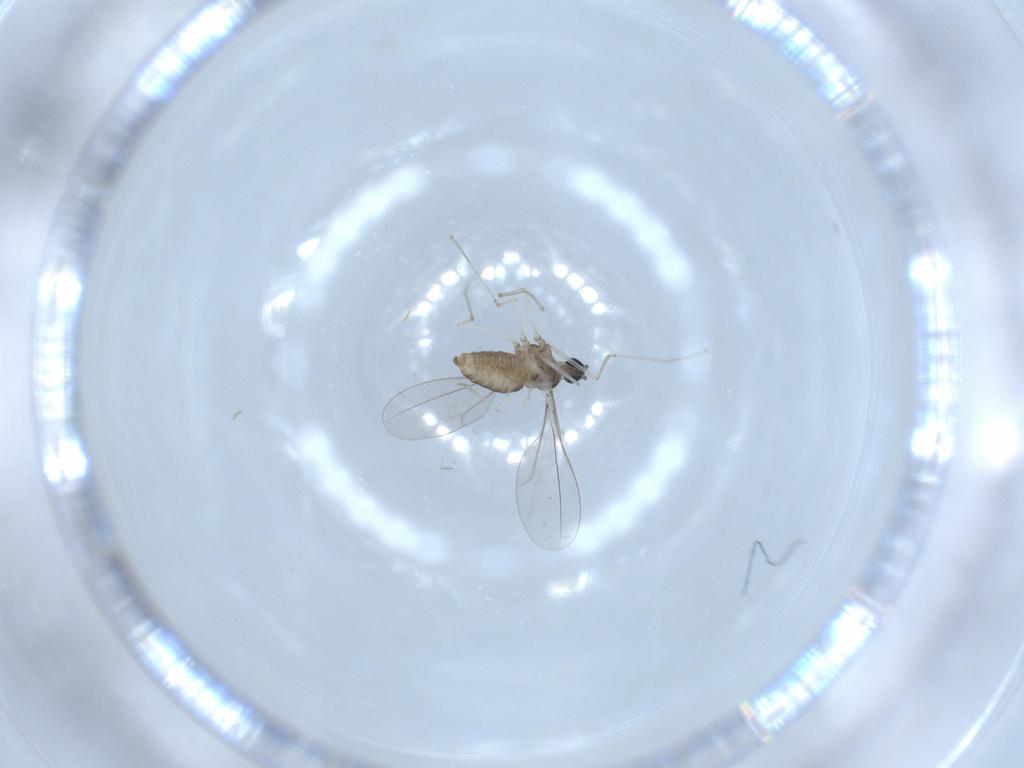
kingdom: Animalia
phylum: Arthropoda
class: Insecta
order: Diptera
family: Cecidomyiidae
